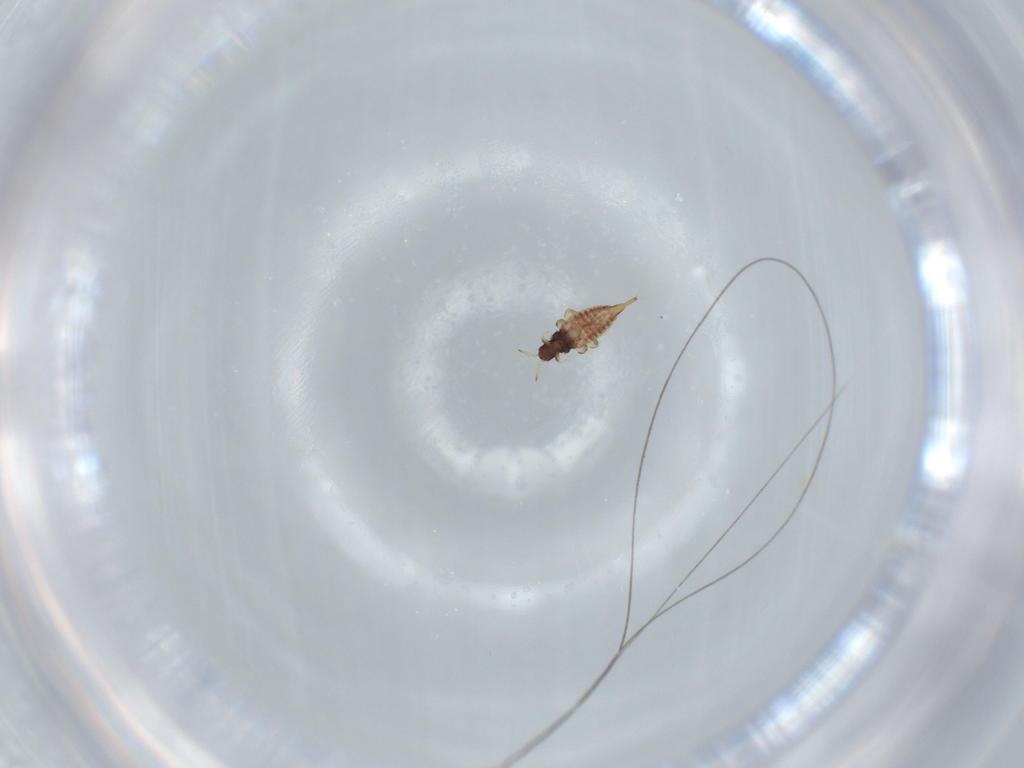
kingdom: Animalia
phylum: Arthropoda
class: Insecta
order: Thysanoptera
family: Phlaeothripidae
